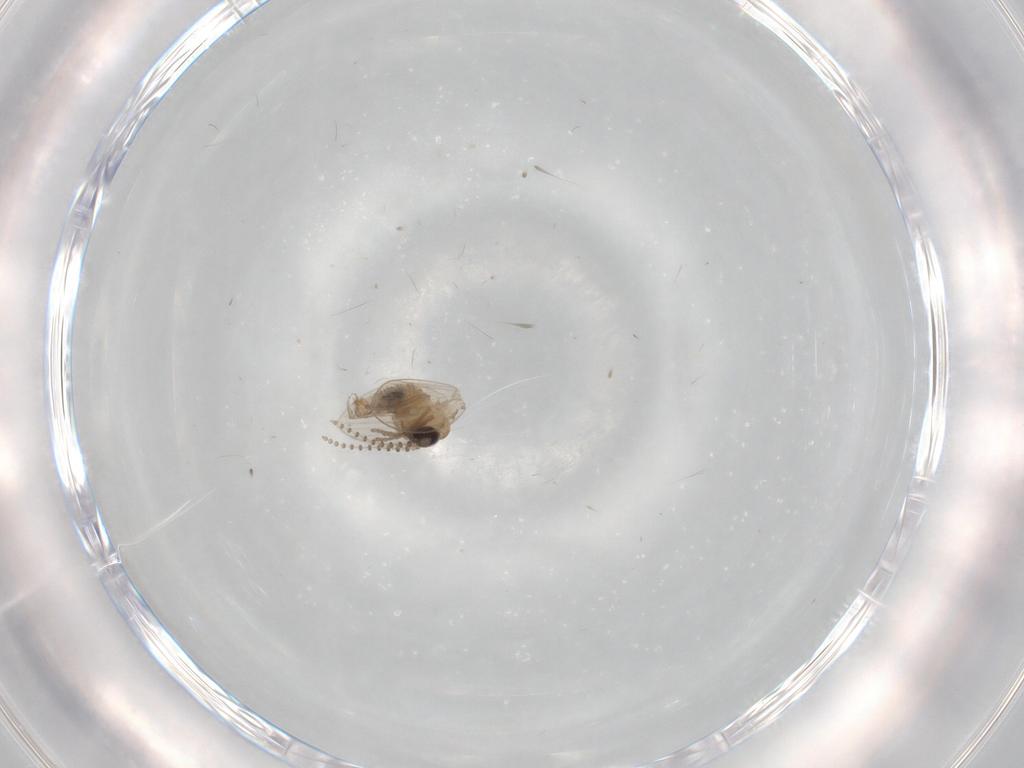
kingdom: Animalia
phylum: Arthropoda
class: Insecta
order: Diptera
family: Psychodidae
